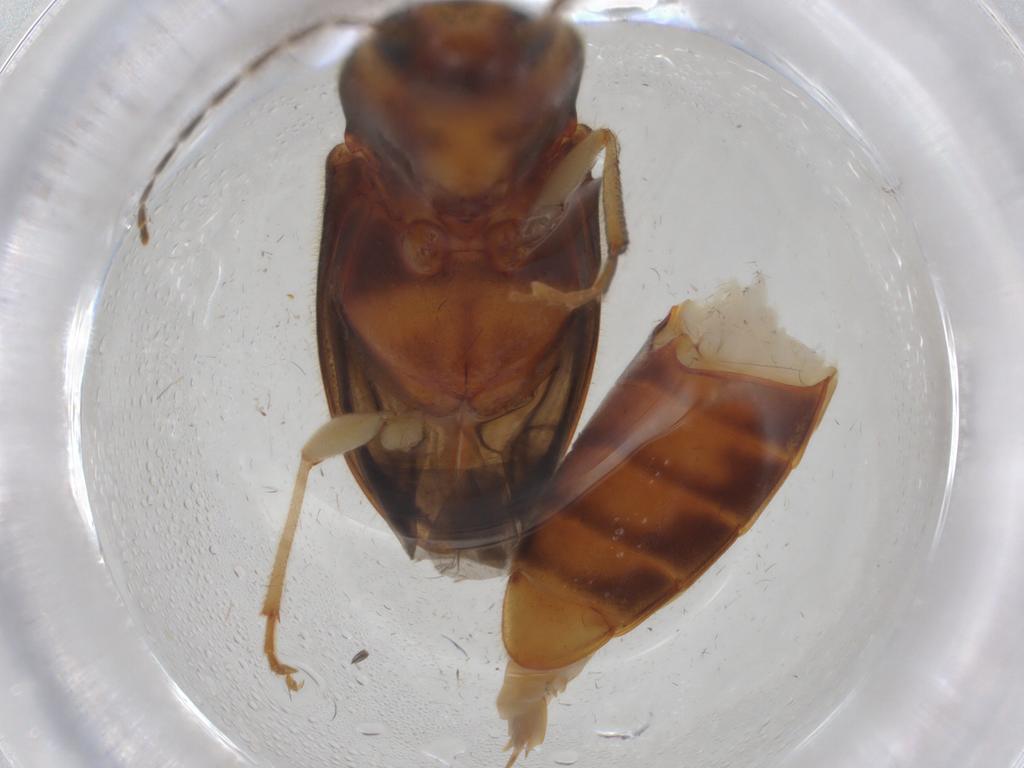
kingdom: Animalia
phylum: Arthropoda
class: Insecta
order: Coleoptera
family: Elateridae
